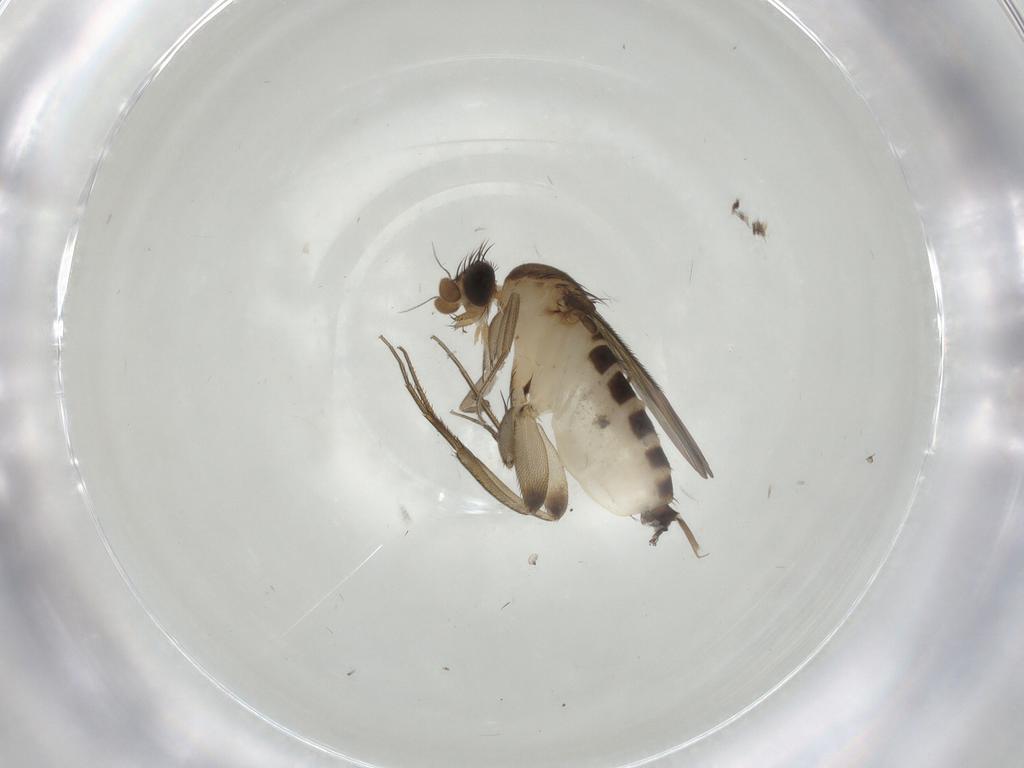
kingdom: Animalia
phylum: Arthropoda
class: Insecta
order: Diptera
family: Phoridae
